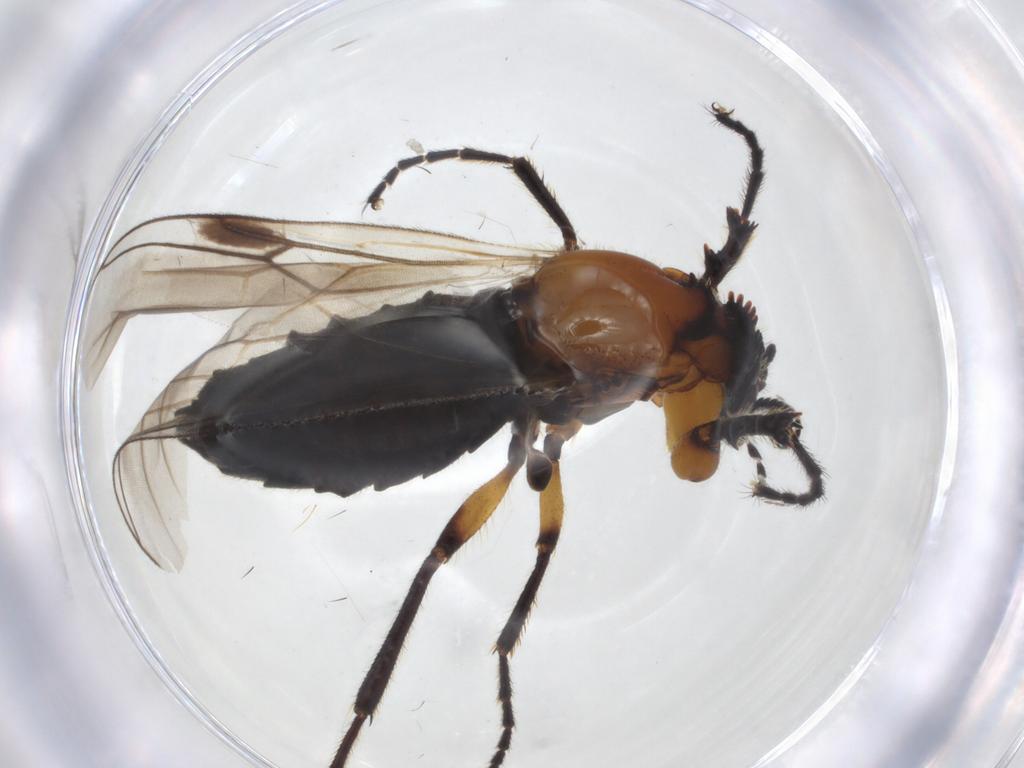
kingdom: Animalia
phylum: Arthropoda
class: Insecta
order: Diptera
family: Bibionidae
